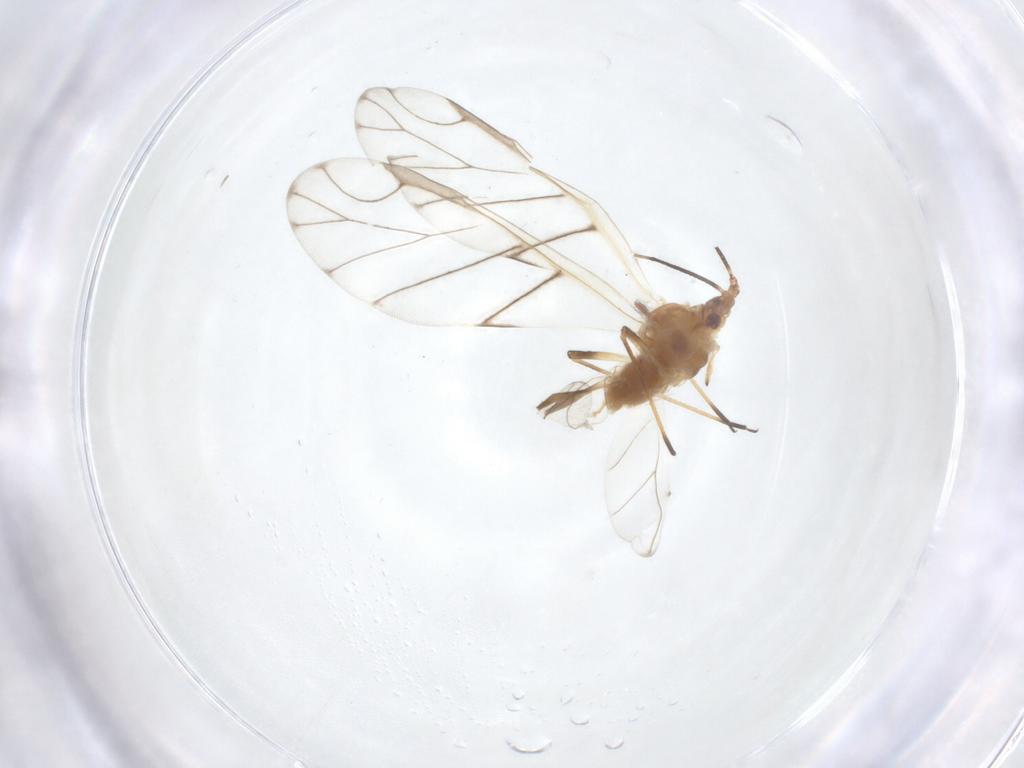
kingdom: Animalia
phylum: Arthropoda
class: Insecta
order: Hemiptera
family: Aphididae
